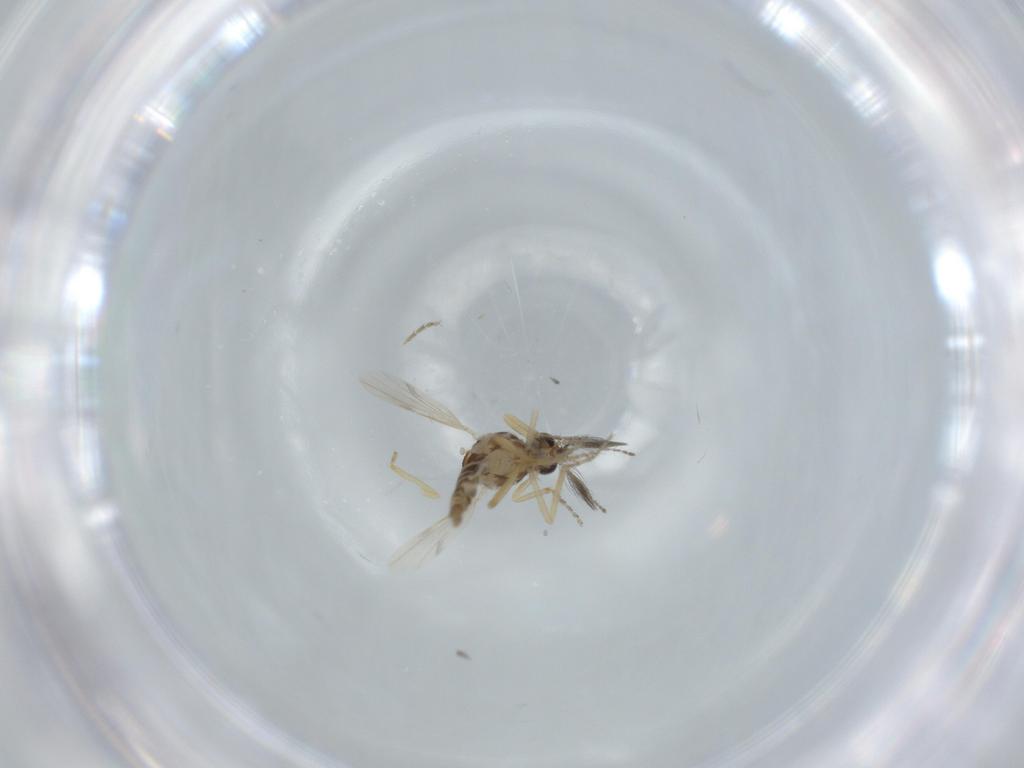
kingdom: Animalia
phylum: Arthropoda
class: Insecta
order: Diptera
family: Ceratopogonidae
